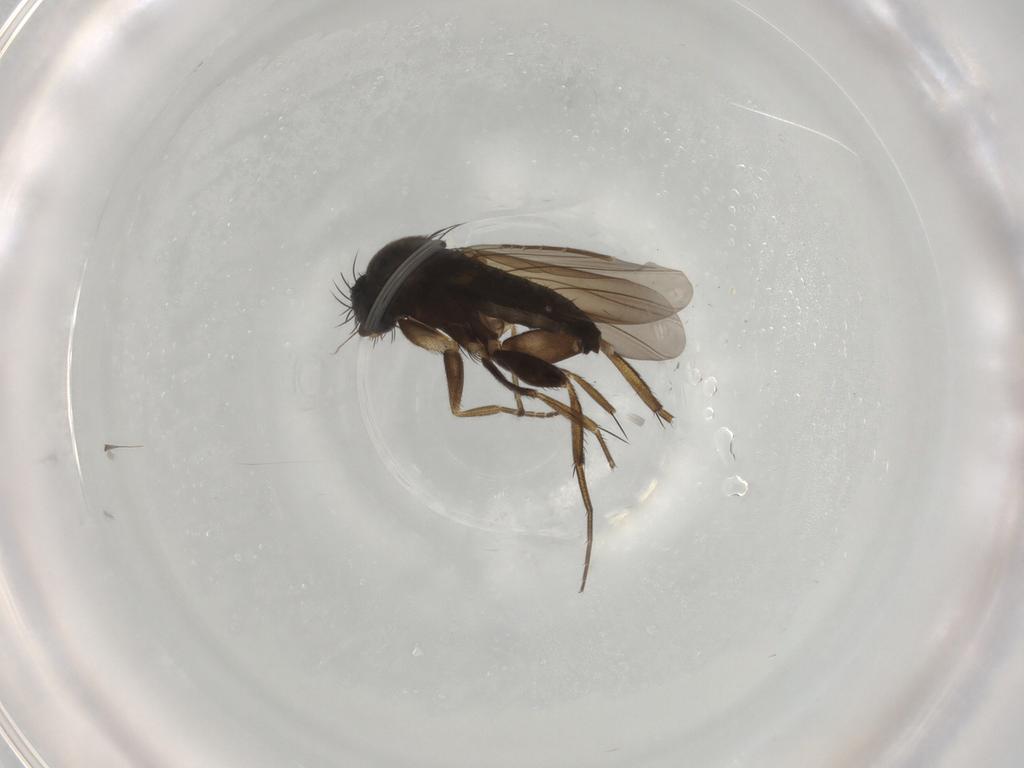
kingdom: Animalia
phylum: Arthropoda
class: Insecta
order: Diptera
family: Phoridae
